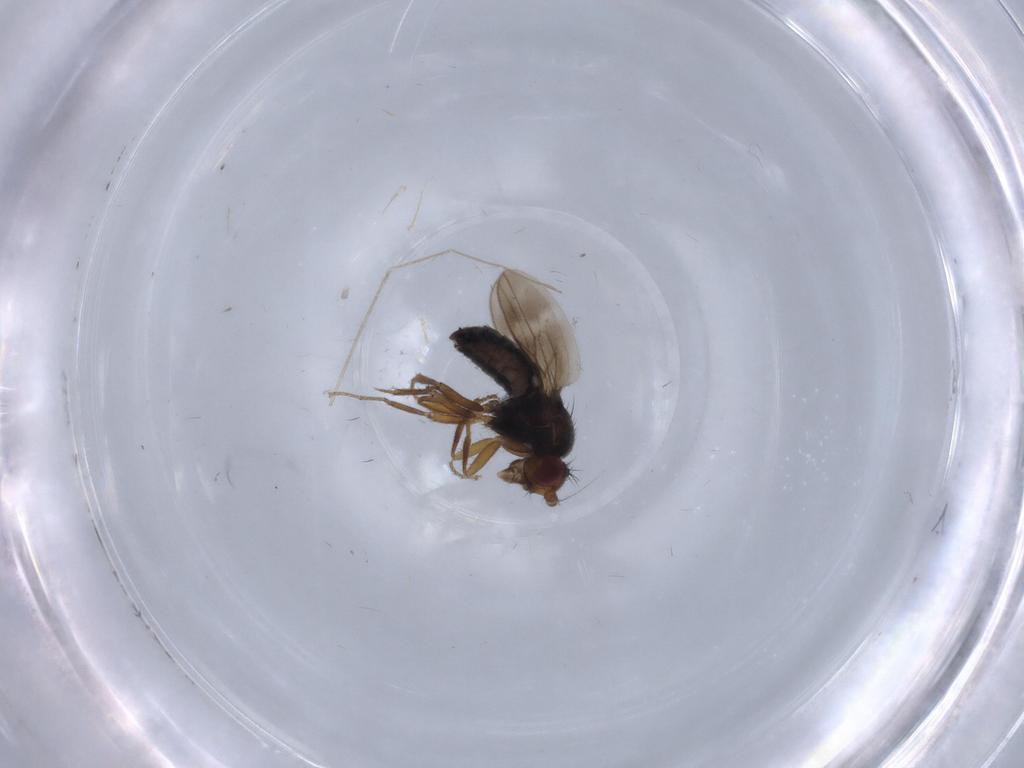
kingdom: Animalia
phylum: Arthropoda
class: Insecta
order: Diptera
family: Sphaeroceridae
